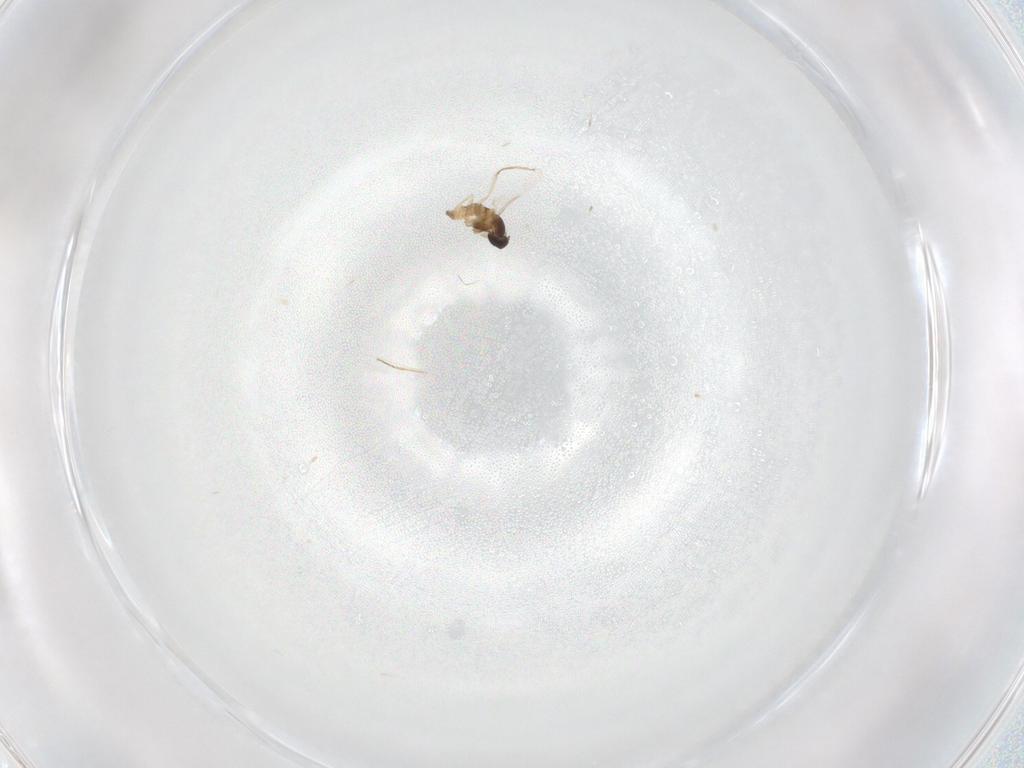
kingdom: Animalia
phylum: Arthropoda
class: Insecta
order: Diptera
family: Cecidomyiidae
